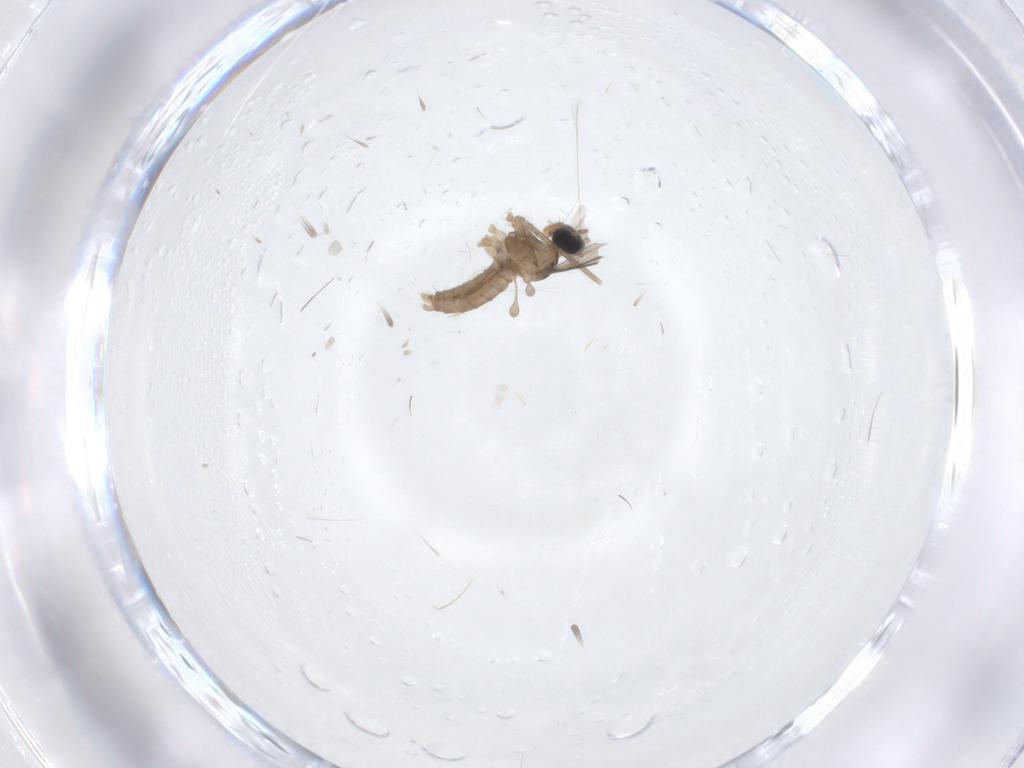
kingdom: Animalia
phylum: Arthropoda
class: Insecta
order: Diptera
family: Cecidomyiidae
